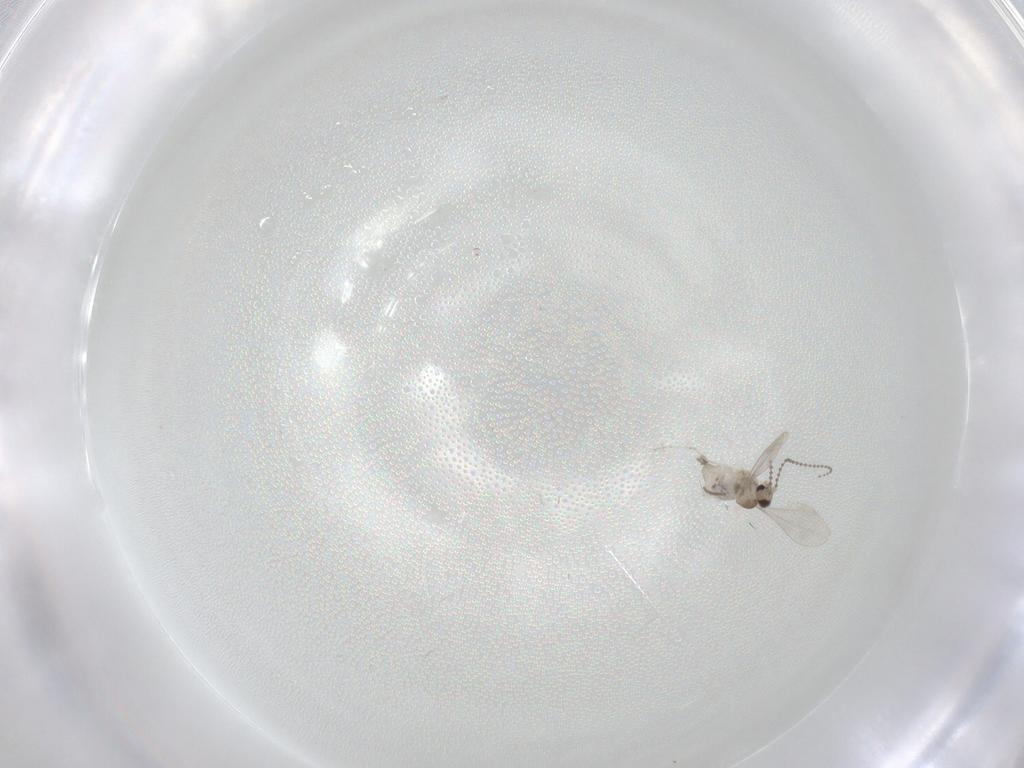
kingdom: Animalia
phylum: Arthropoda
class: Insecta
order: Diptera
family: Cecidomyiidae
